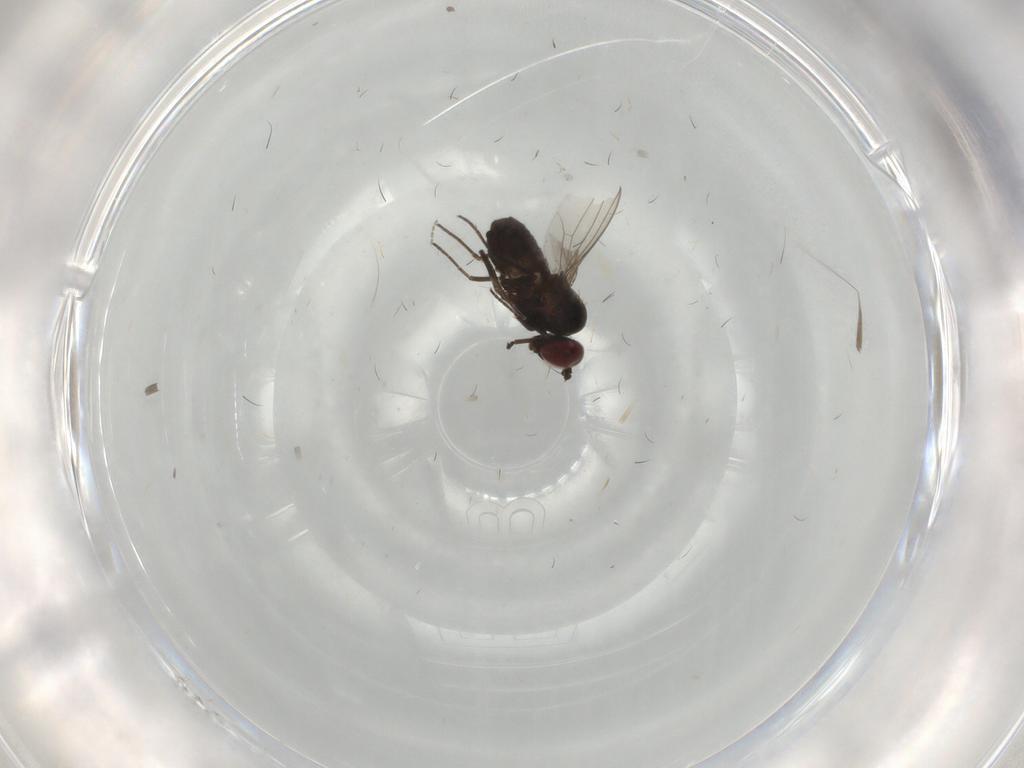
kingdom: Animalia
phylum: Arthropoda
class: Insecta
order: Diptera
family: Dolichopodidae
